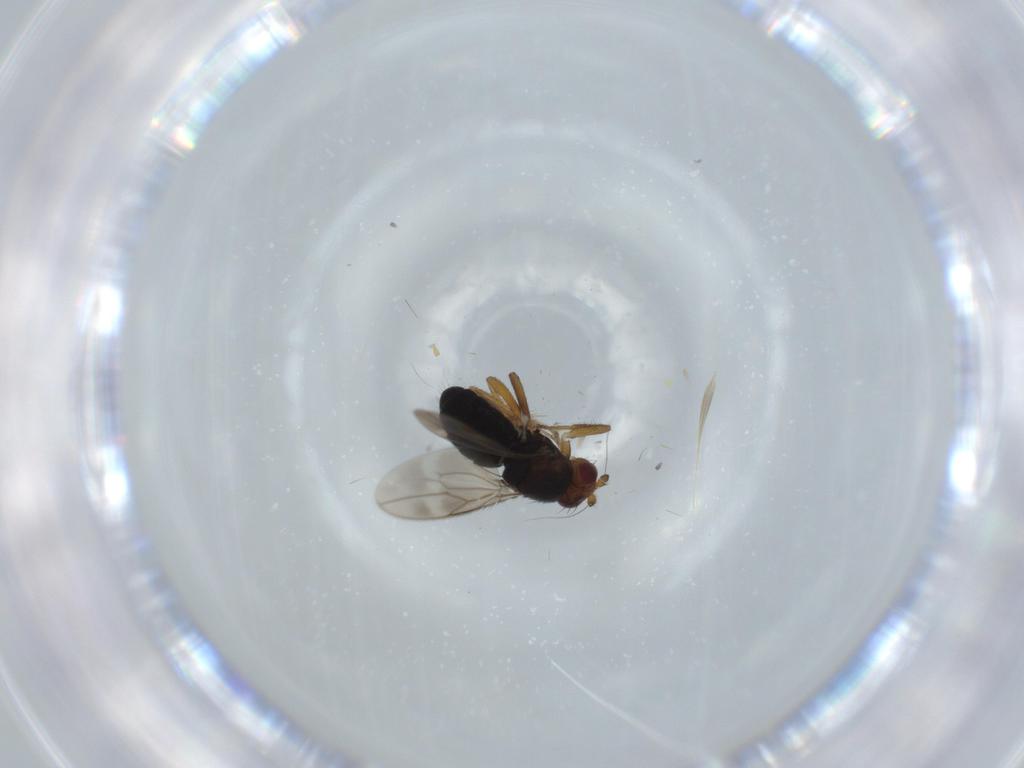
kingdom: Animalia
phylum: Arthropoda
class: Insecta
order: Diptera
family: Sphaeroceridae
